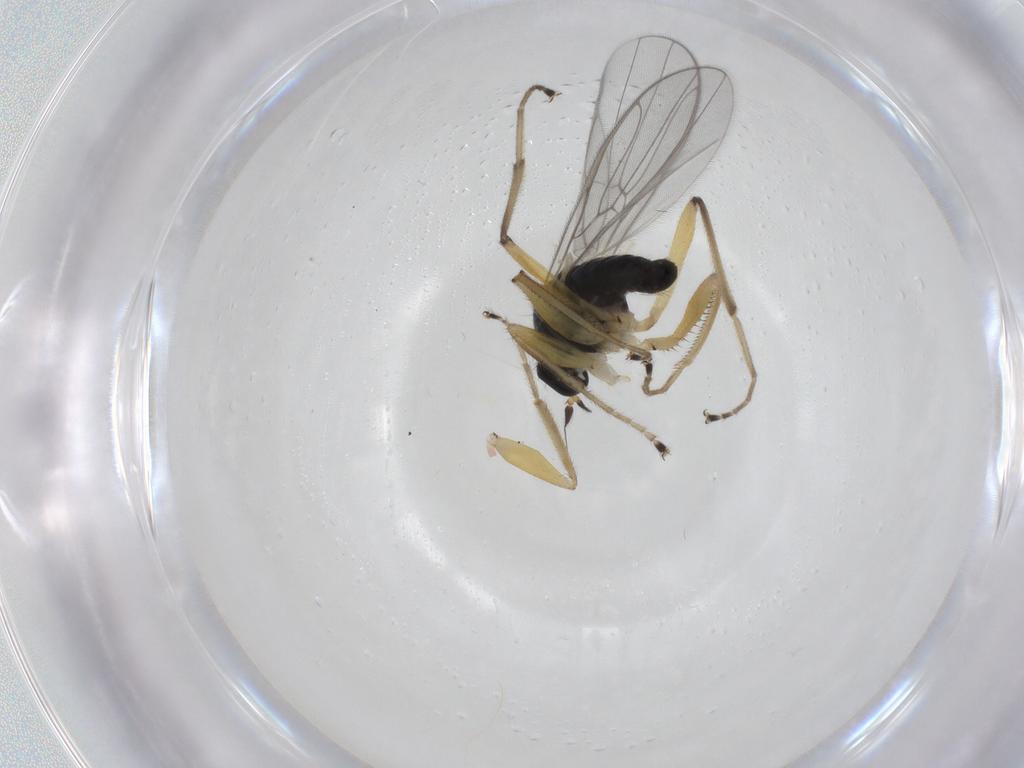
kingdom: Animalia
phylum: Arthropoda
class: Insecta
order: Diptera
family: Hybotidae
